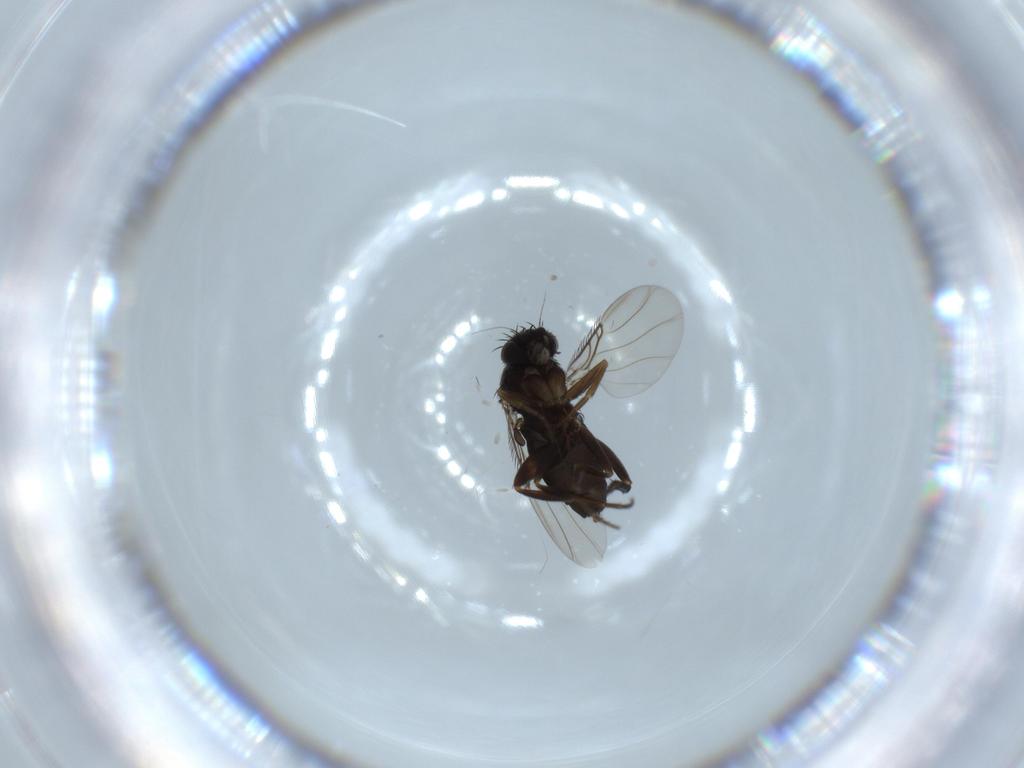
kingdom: Animalia
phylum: Arthropoda
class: Insecta
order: Diptera
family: Phoridae
